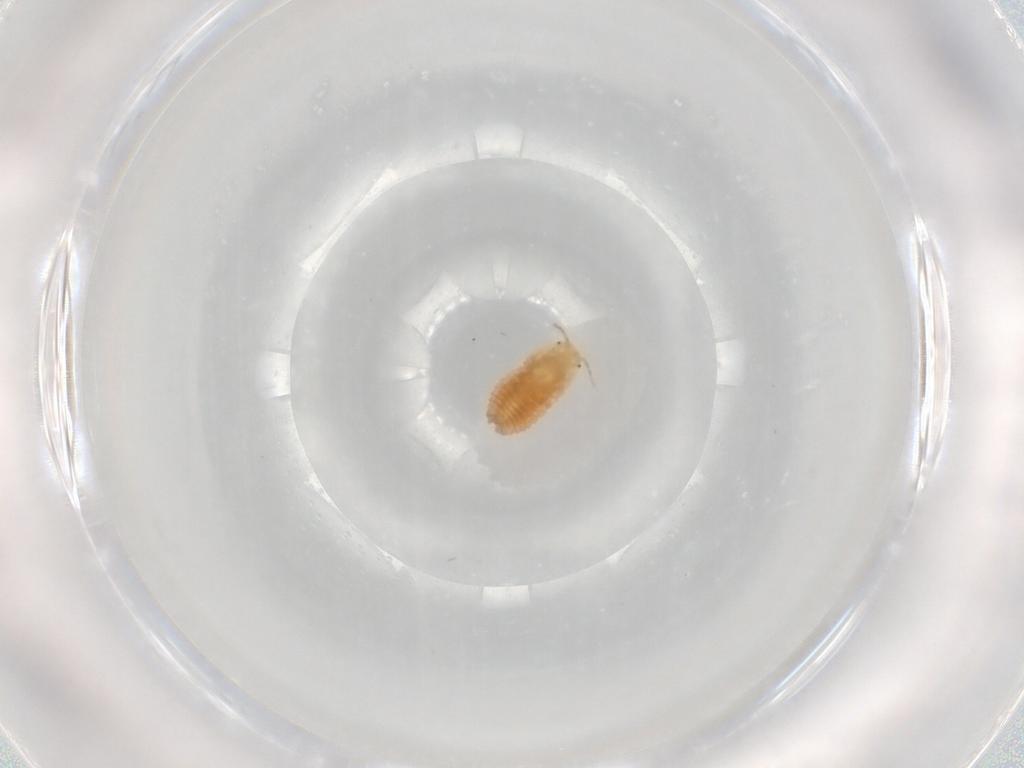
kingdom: Animalia
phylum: Arthropoda
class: Insecta
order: Hemiptera
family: Pseudococcidae
